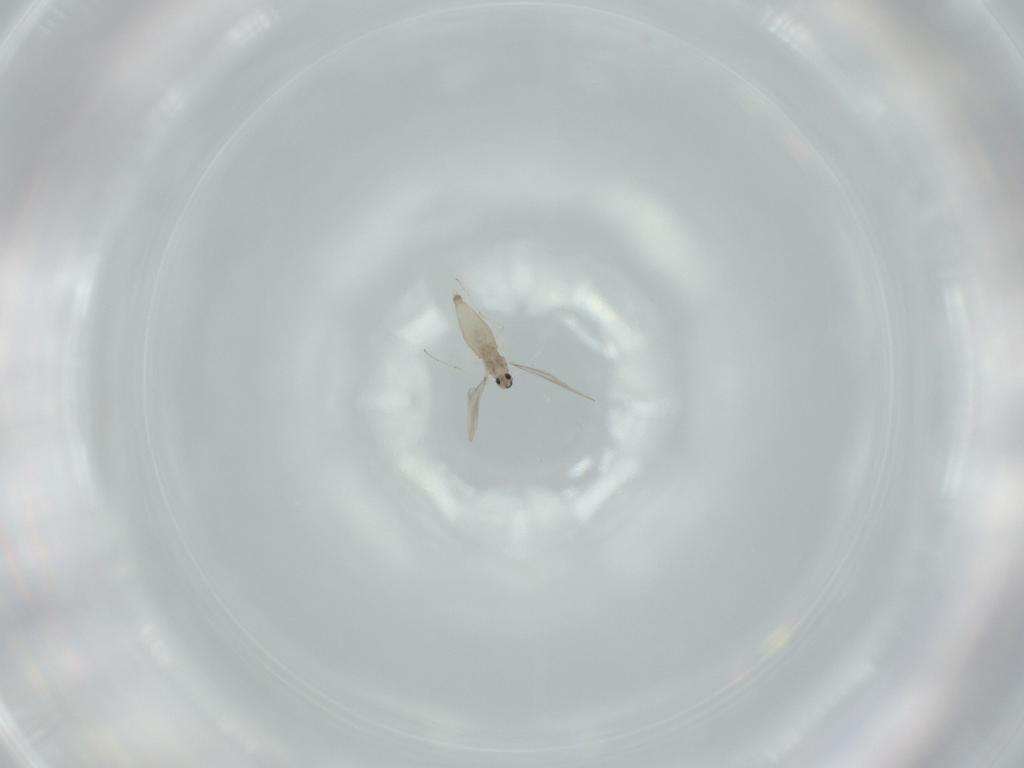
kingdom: Animalia
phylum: Arthropoda
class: Insecta
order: Diptera
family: Cecidomyiidae
